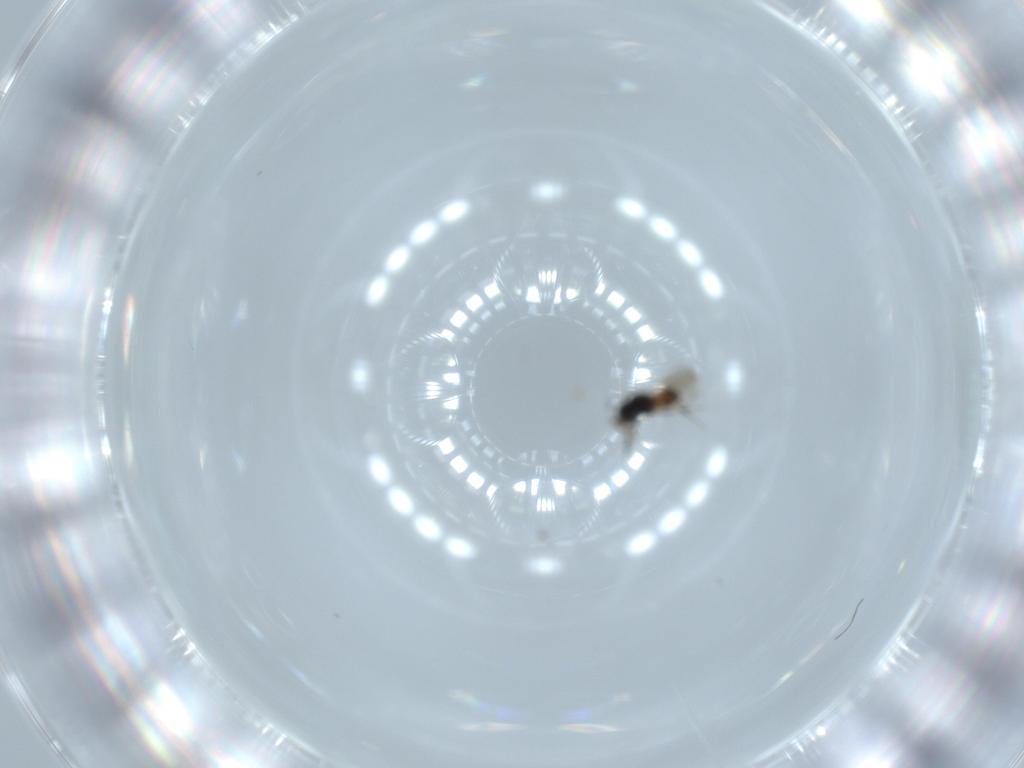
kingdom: Animalia
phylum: Arthropoda
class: Insecta
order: Hymenoptera
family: Scelionidae
